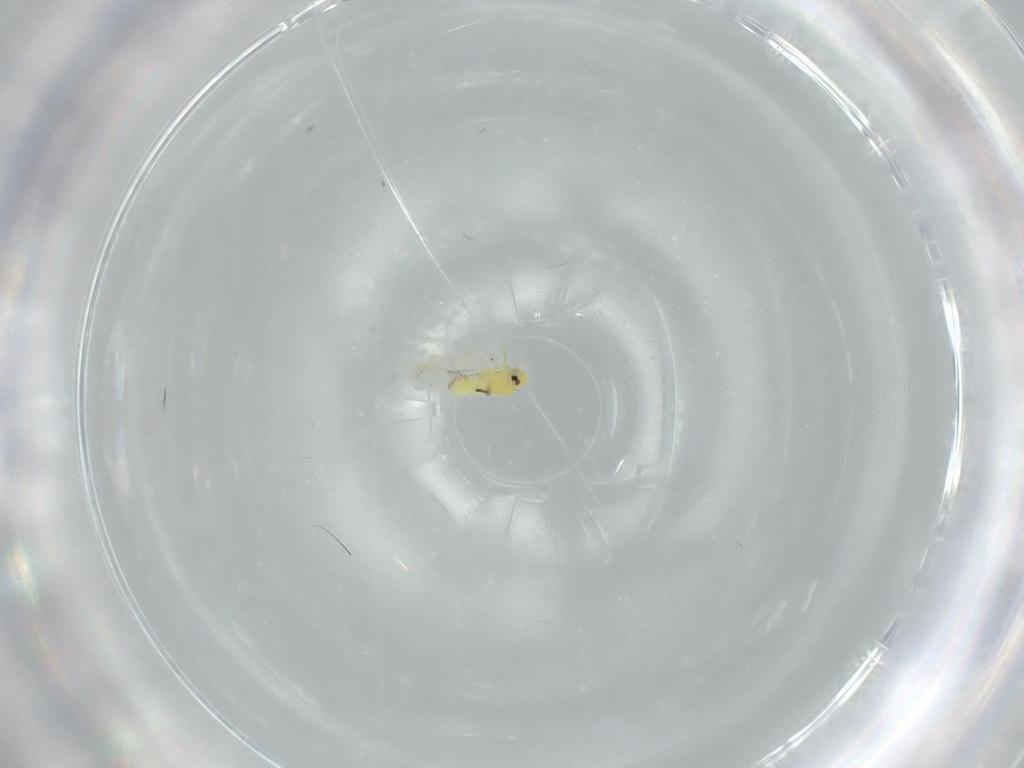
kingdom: Animalia
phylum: Arthropoda
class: Insecta
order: Hemiptera
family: Aleyrodidae
